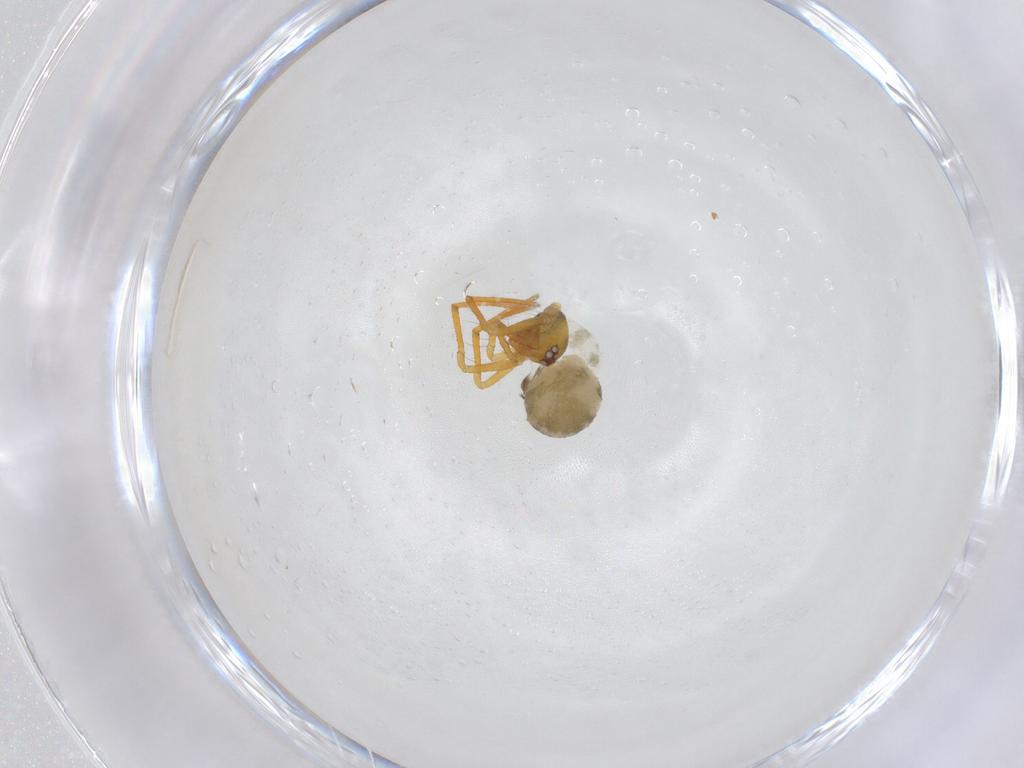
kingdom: Animalia
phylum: Arthropoda
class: Arachnida
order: Araneae
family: Theridiidae
